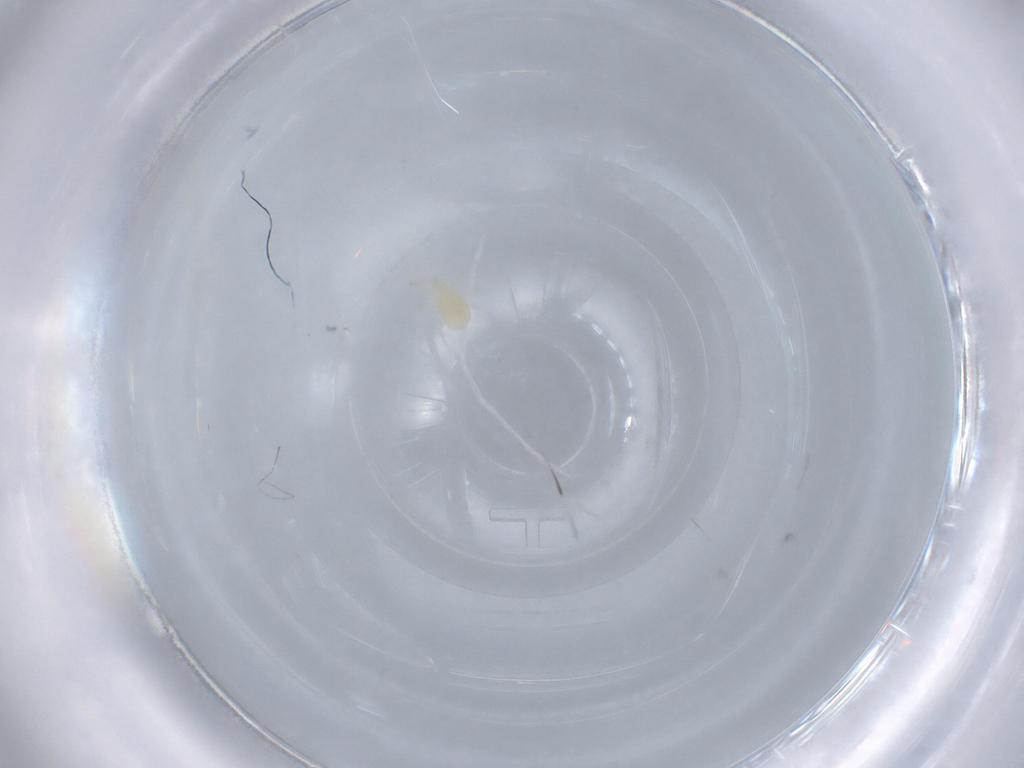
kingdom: Animalia
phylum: Arthropoda
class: Arachnida
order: Mesostigmata
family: Phytoseiidae
